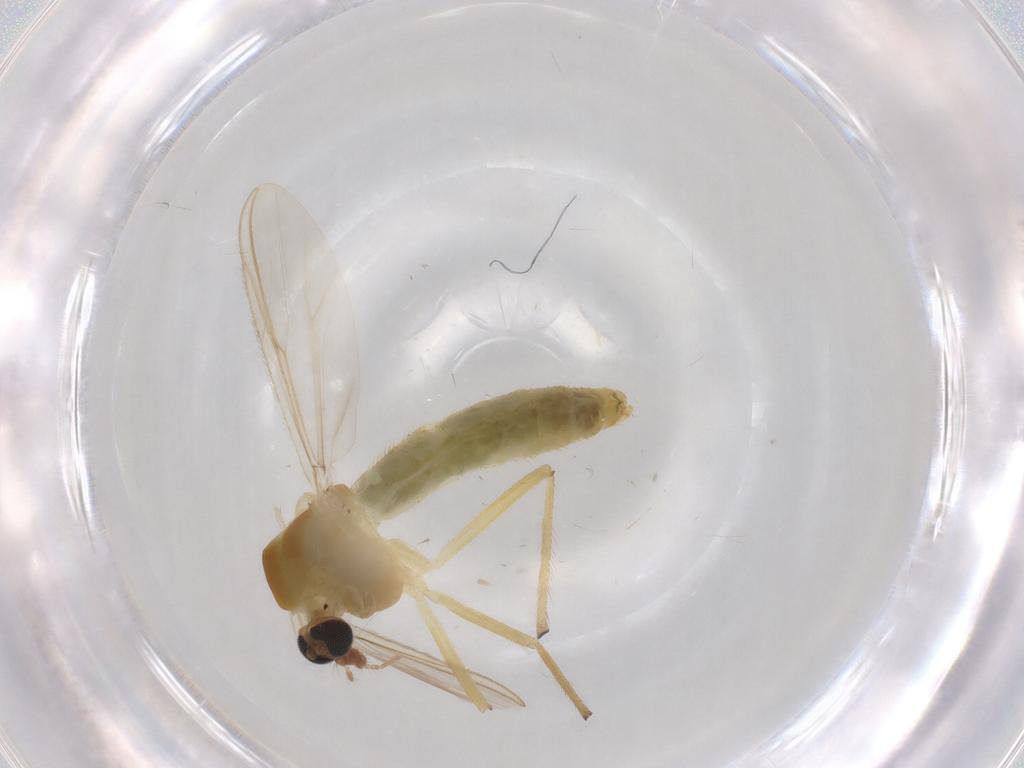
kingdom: Animalia
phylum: Arthropoda
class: Insecta
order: Diptera
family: Chironomidae
